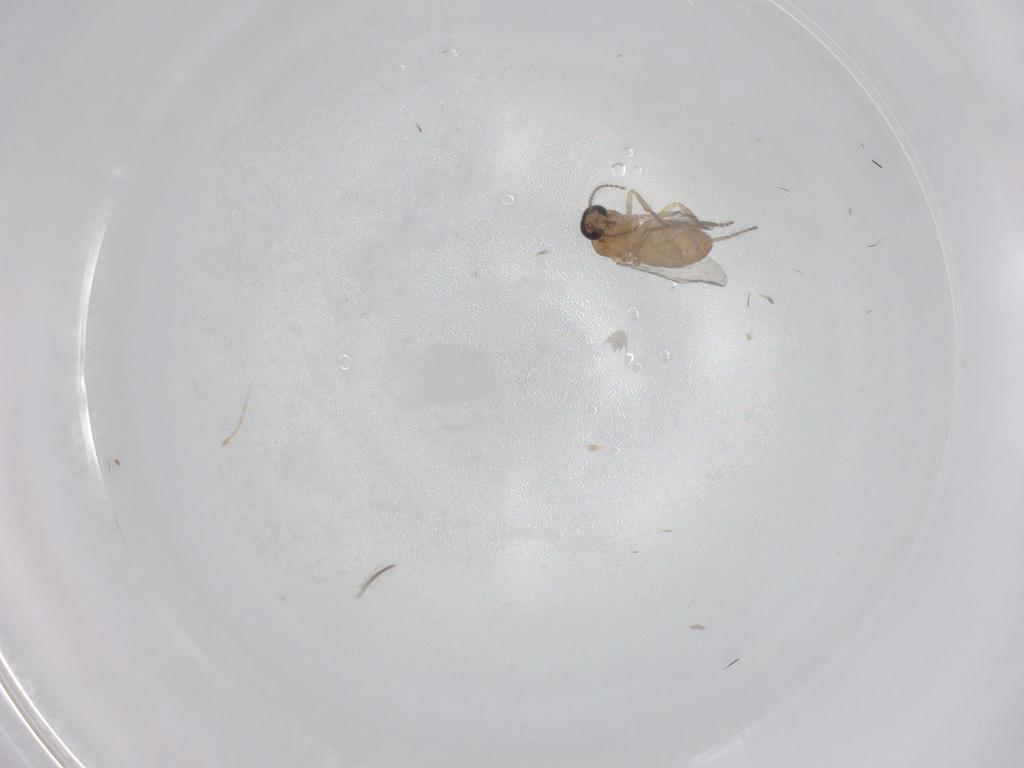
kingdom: Animalia
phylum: Arthropoda
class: Insecta
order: Diptera
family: Ceratopogonidae
